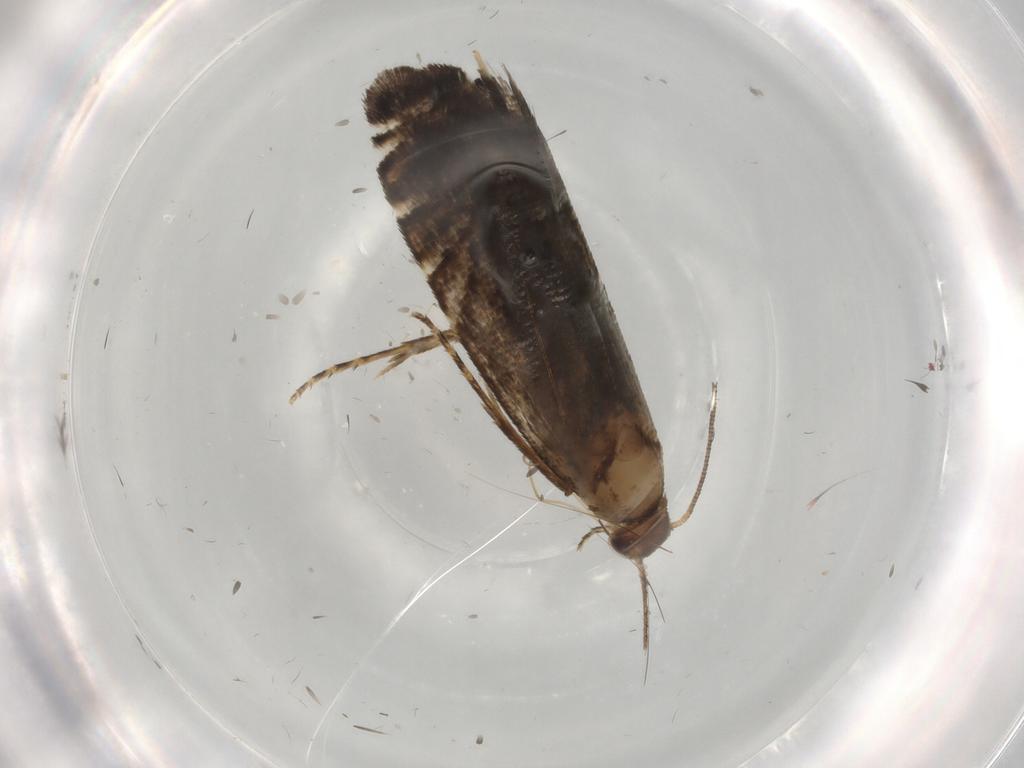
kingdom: Animalia
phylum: Arthropoda
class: Insecta
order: Lepidoptera
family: Glyphipterigidae
